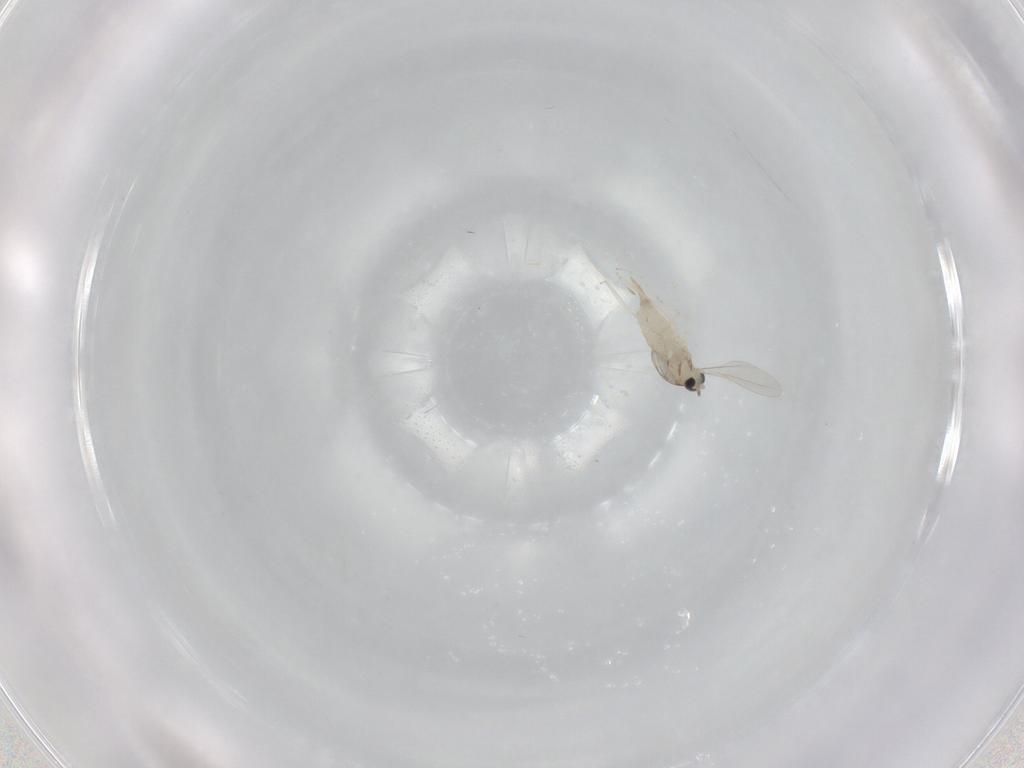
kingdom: Animalia
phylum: Arthropoda
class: Insecta
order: Diptera
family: Cecidomyiidae
